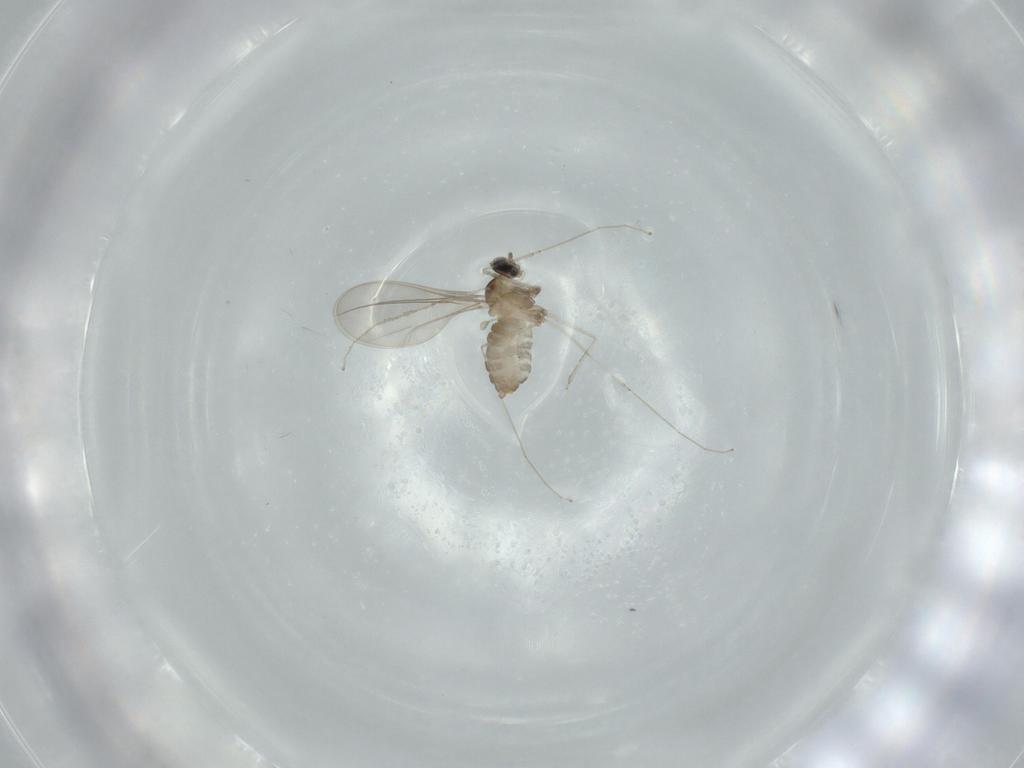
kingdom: Animalia
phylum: Arthropoda
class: Insecta
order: Diptera
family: Cecidomyiidae
